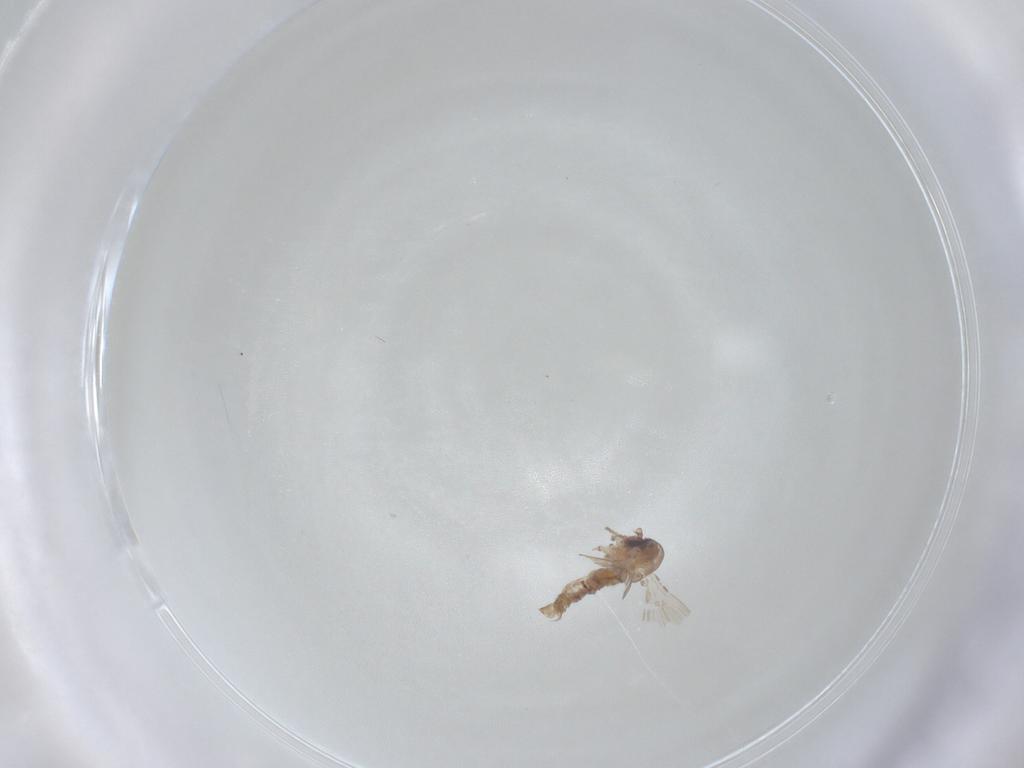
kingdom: Animalia
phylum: Arthropoda
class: Insecta
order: Diptera
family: Psychodidae
